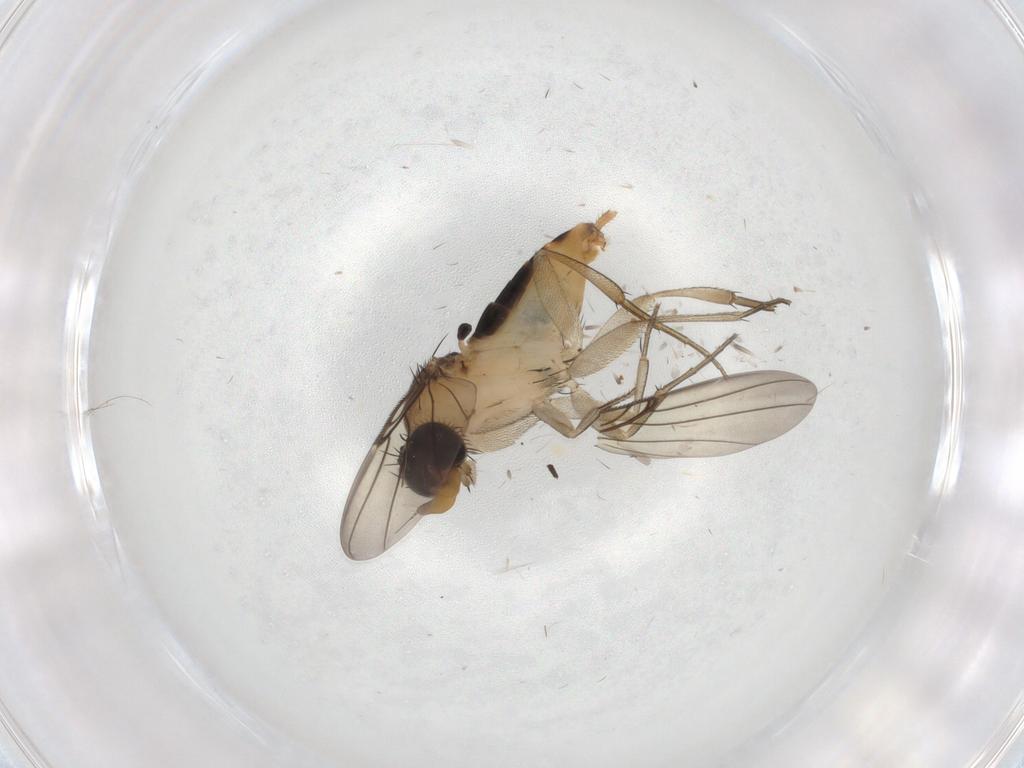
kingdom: Animalia
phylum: Arthropoda
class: Insecta
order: Diptera
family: Phoridae
